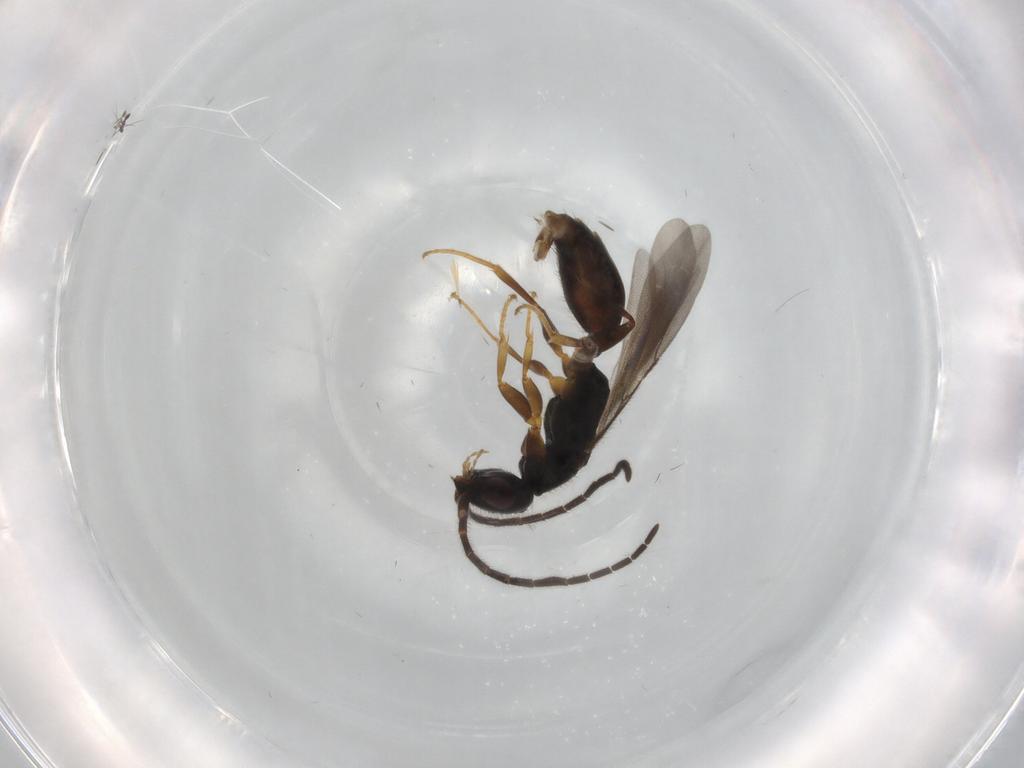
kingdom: Animalia
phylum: Arthropoda
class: Insecta
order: Hymenoptera
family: Bethylidae
